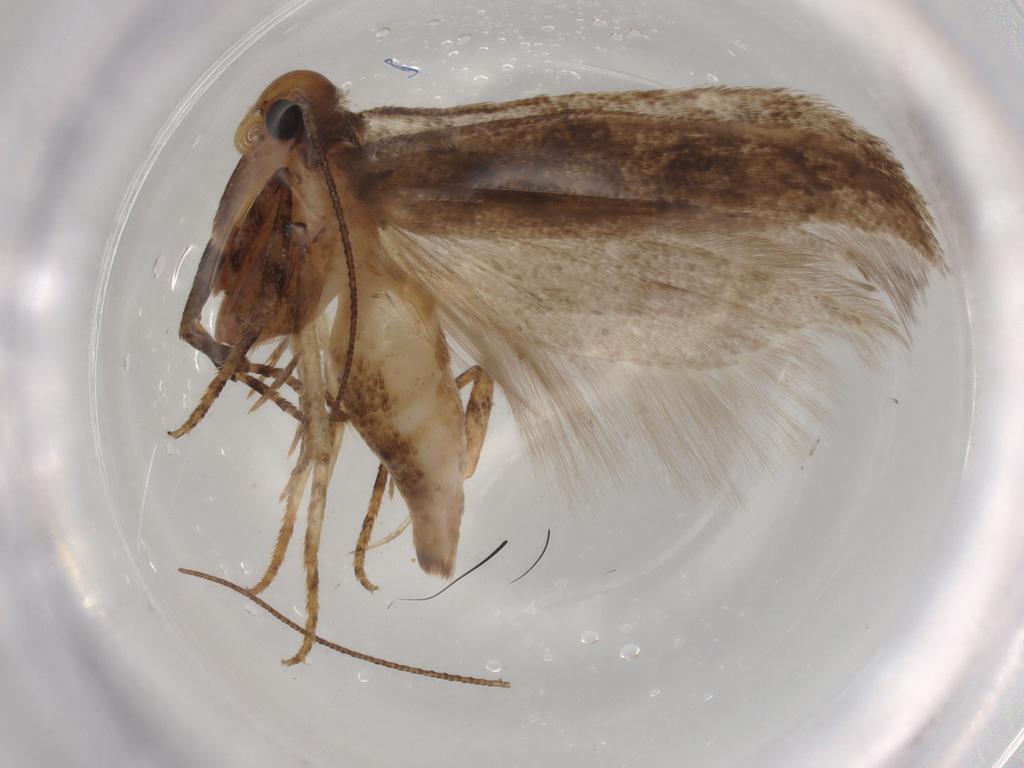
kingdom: Animalia
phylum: Arthropoda
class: Insecta
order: Lepidoptera
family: Gelechiidae
